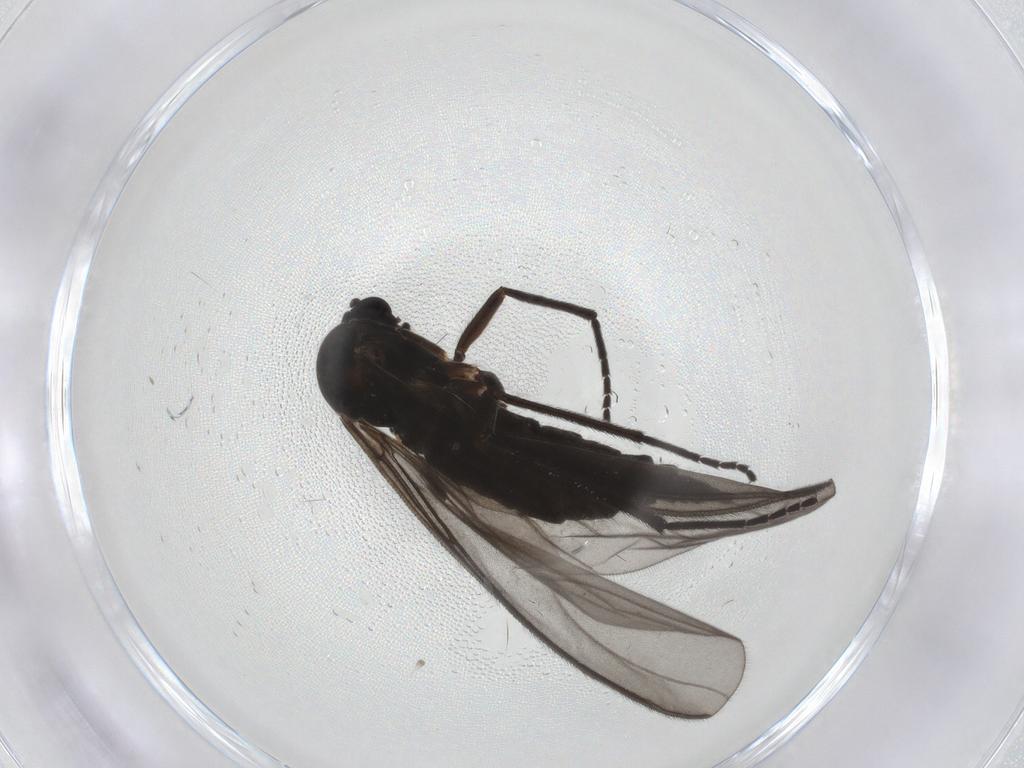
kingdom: Animalia
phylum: Arthropoda
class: Insecta
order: Diptera
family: Sciaridae
